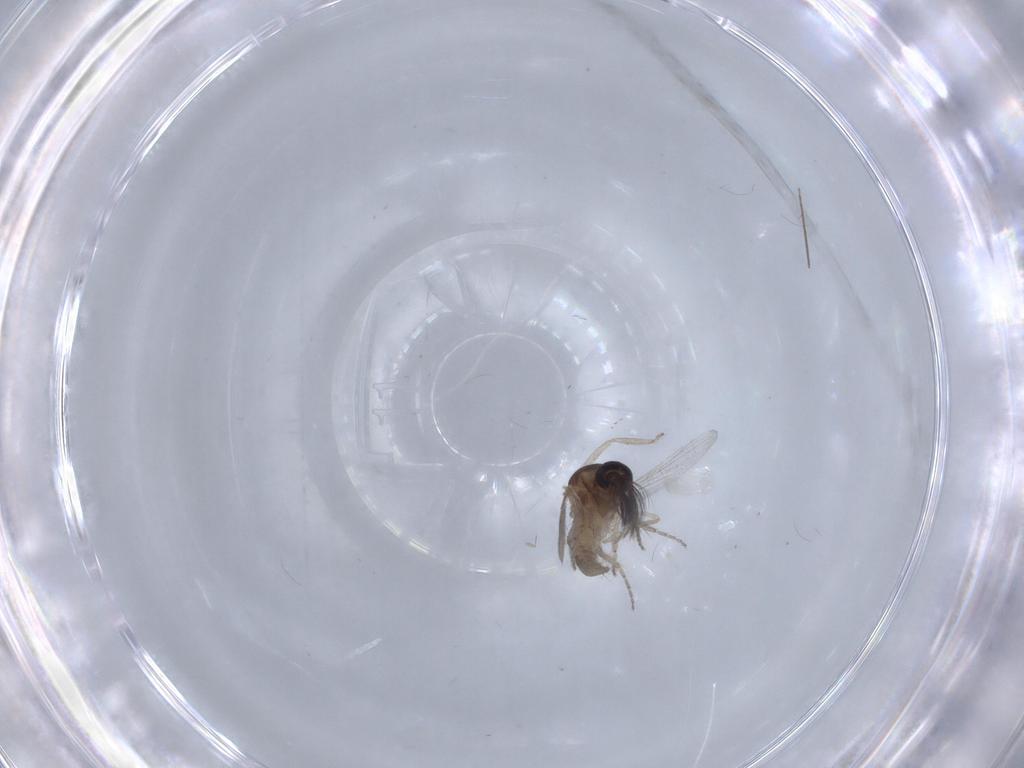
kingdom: Animalia
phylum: Arthropoda
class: Insecta
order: Diptera
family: Ceratopogonidae
